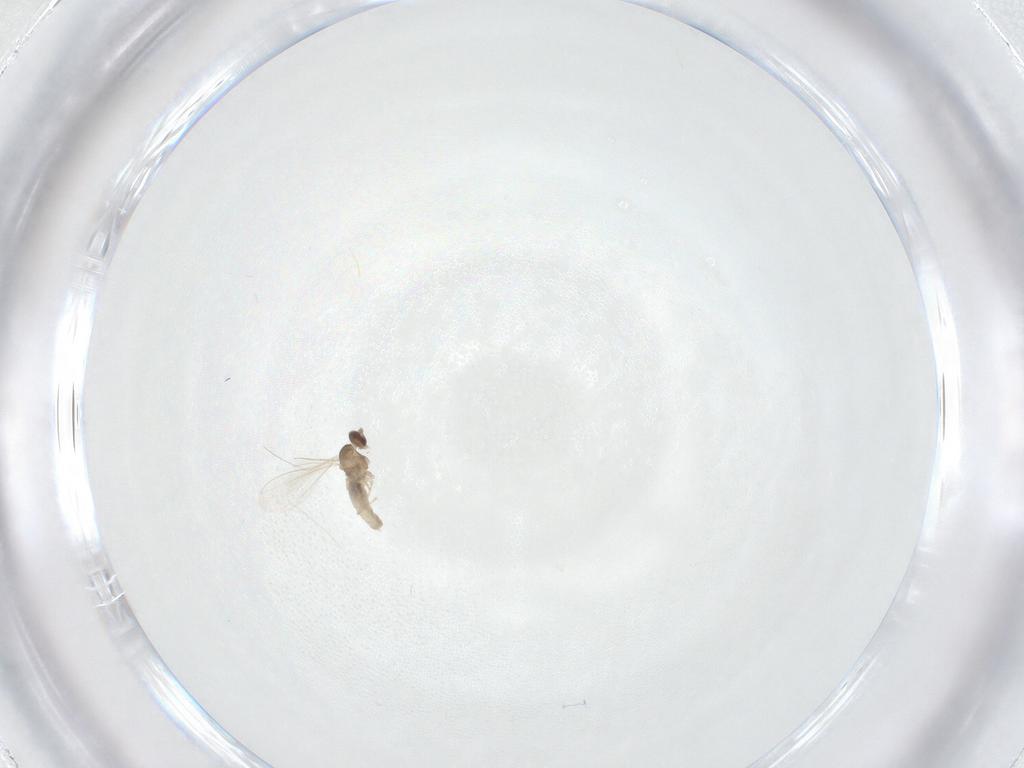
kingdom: Animalia
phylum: Arthropoda
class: Insecta
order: Diptera
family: Cecidomyiidae
